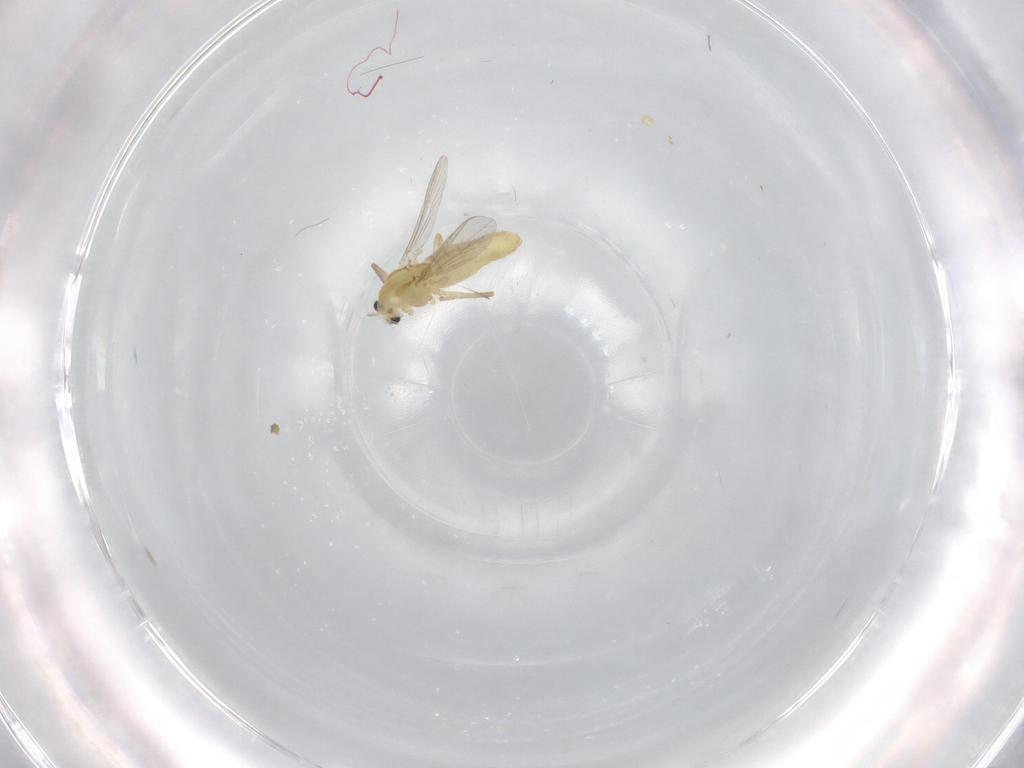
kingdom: Animalia
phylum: Arthropoda
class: Insecta
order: Diptera
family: Chironomidae
